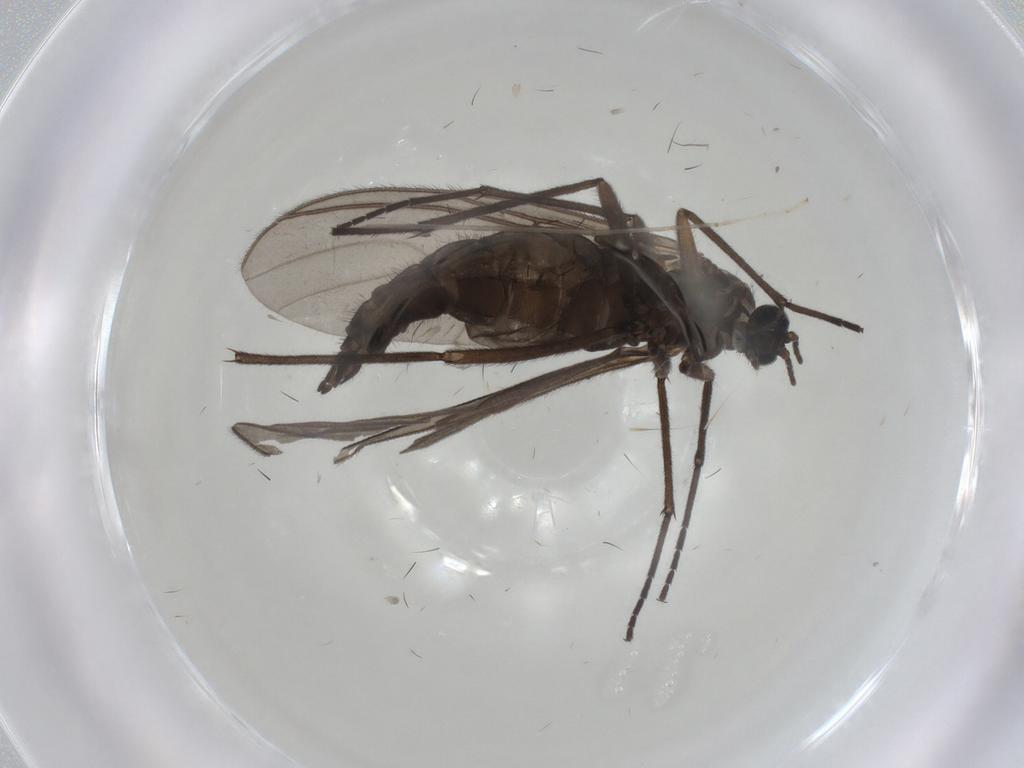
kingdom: Animalia
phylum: Arthropoda
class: Insecta
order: Diptera
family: Sciaridae
